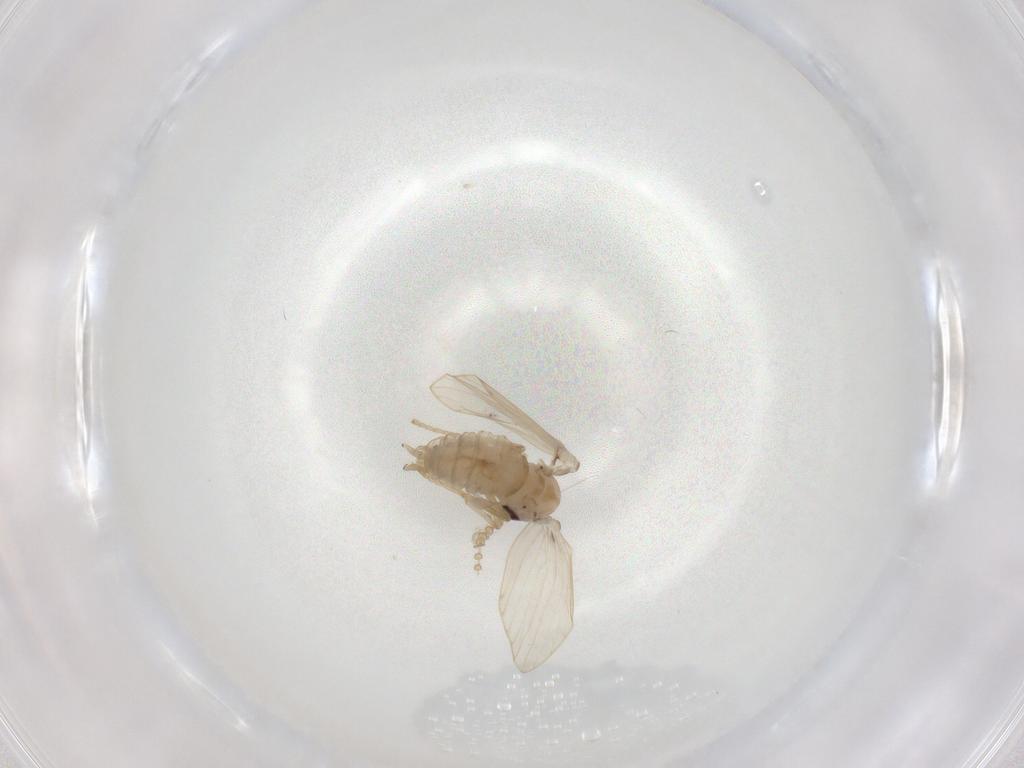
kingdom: Animalia
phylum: Arthropoda
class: Insecta
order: Diptera
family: Psychodidae
